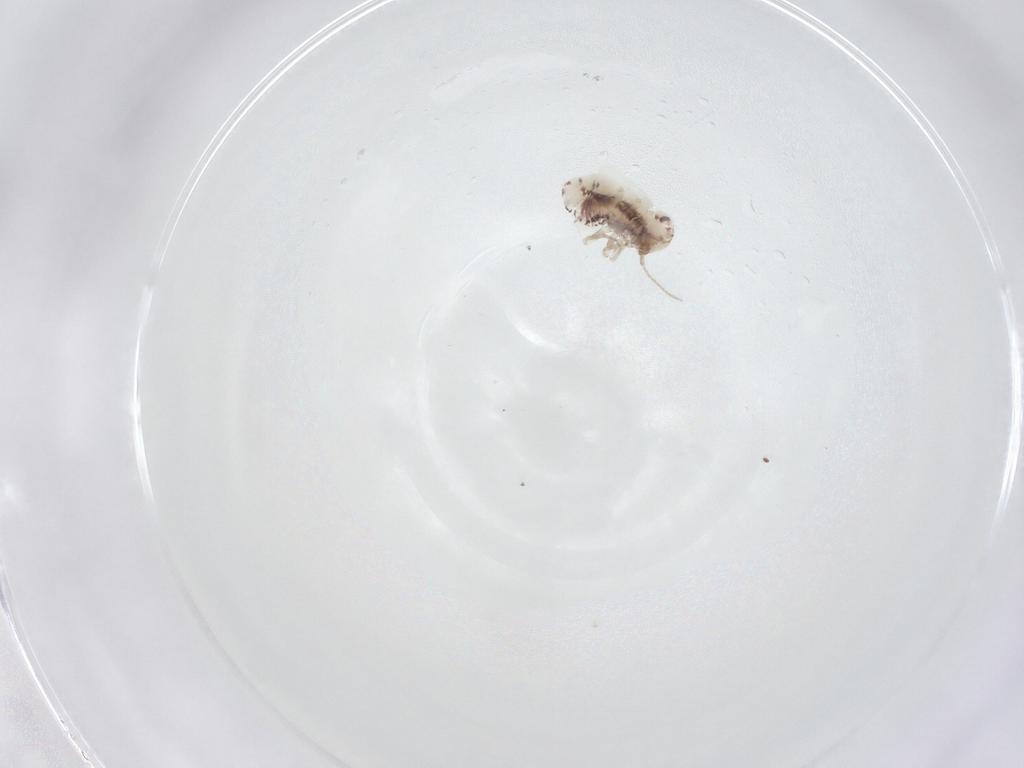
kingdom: Animalia
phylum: Arthropoda
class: Insecta
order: Psocodea
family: Ectopsocidae
